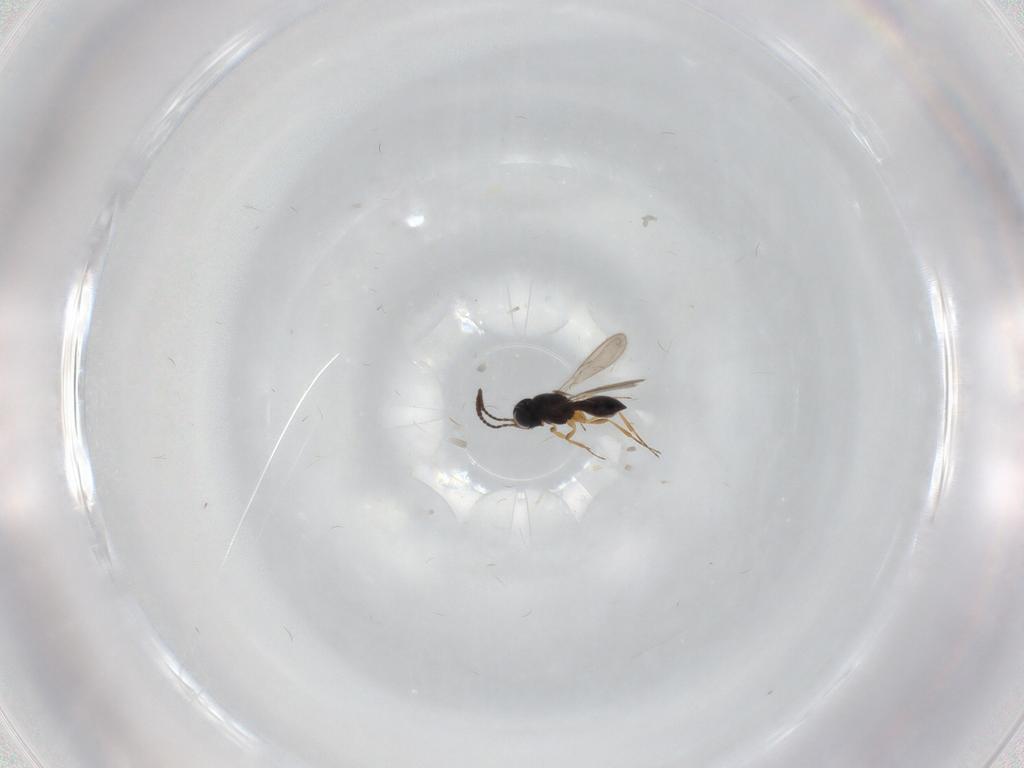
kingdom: Animalia
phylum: Arthropoda
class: Insecta
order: Hymenoptera
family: Scelionidae
